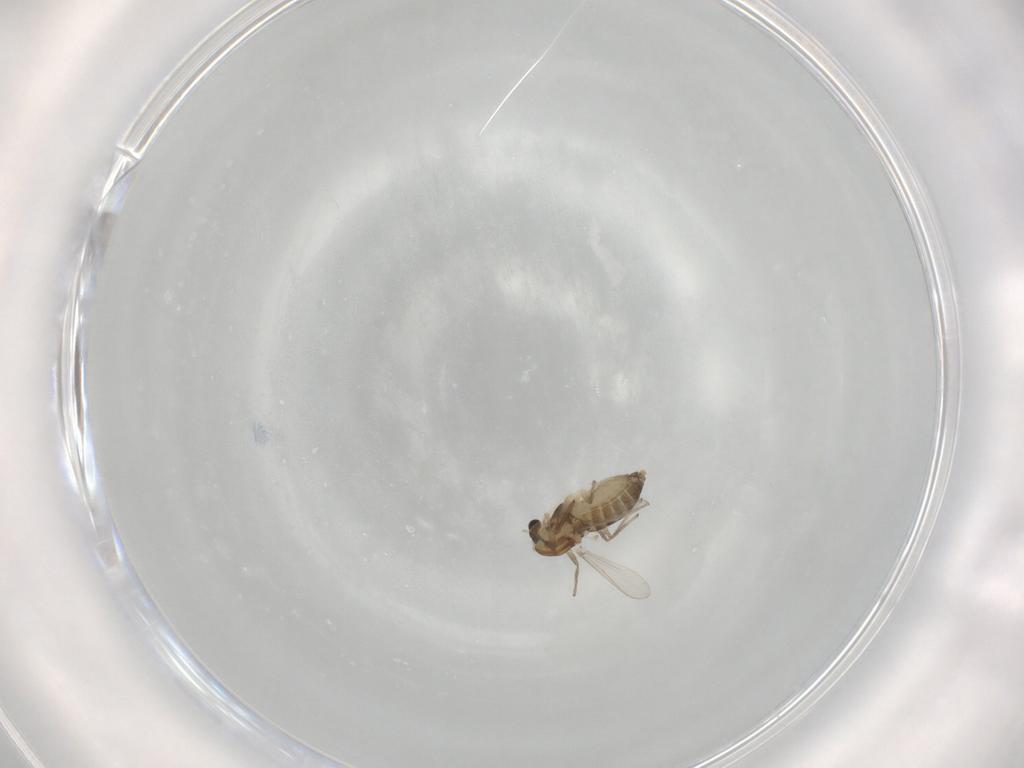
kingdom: Animalia
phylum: Arthropoda
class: Insecta
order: Diptera
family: Chironomidae
